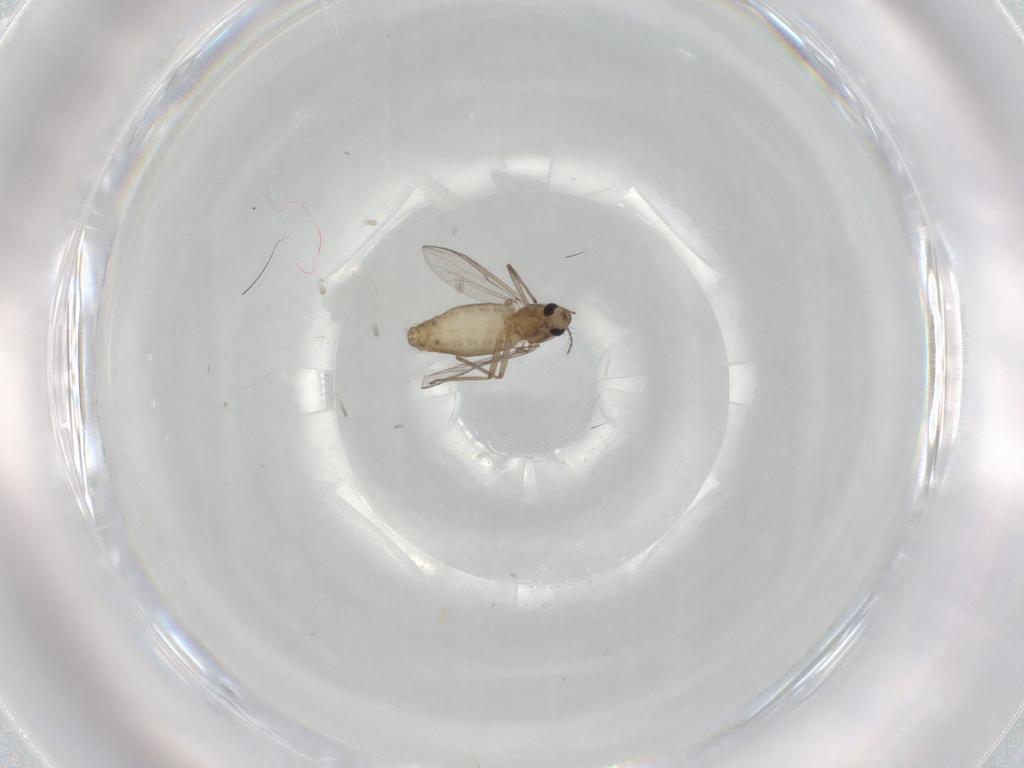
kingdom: Animalia
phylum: Arthropoda
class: Insecta
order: Diptera
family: Chironomidae
